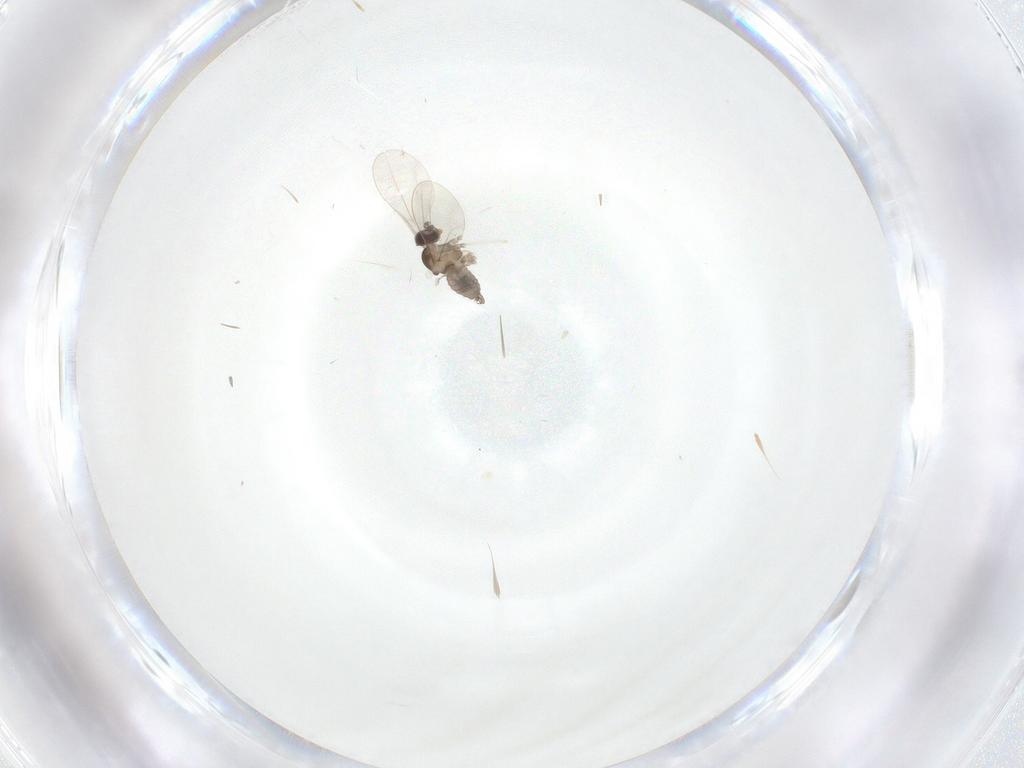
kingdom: Animalia
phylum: Arthropoda
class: Insecta
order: Diptera
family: Cecidomyiidae
